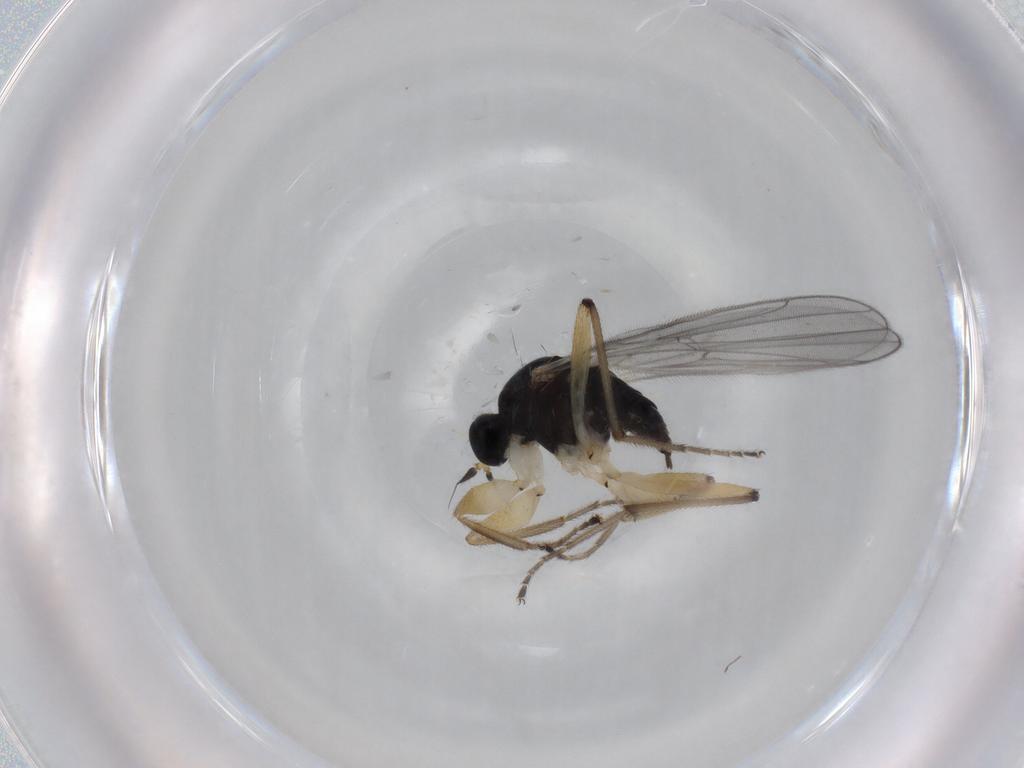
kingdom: Animalia
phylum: Arthropoda
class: Insecta
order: Diptera
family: Hybotidae
